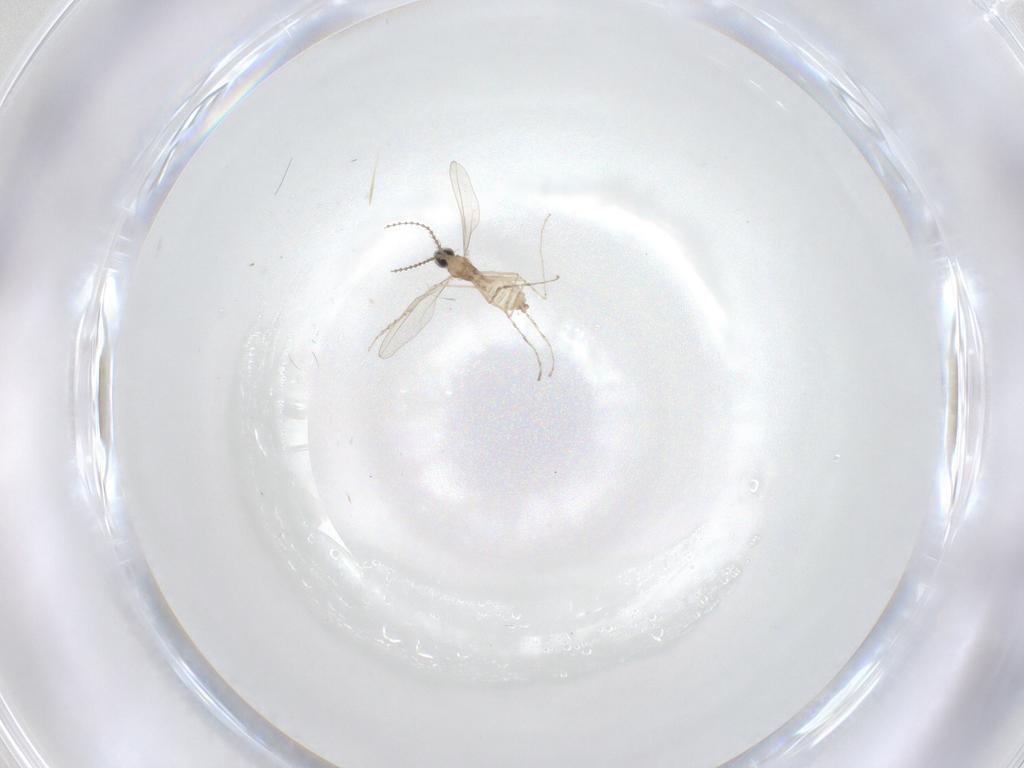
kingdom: Animalia
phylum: Arthropoda
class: Insecta
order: Diptera
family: Cecidomyiidae
